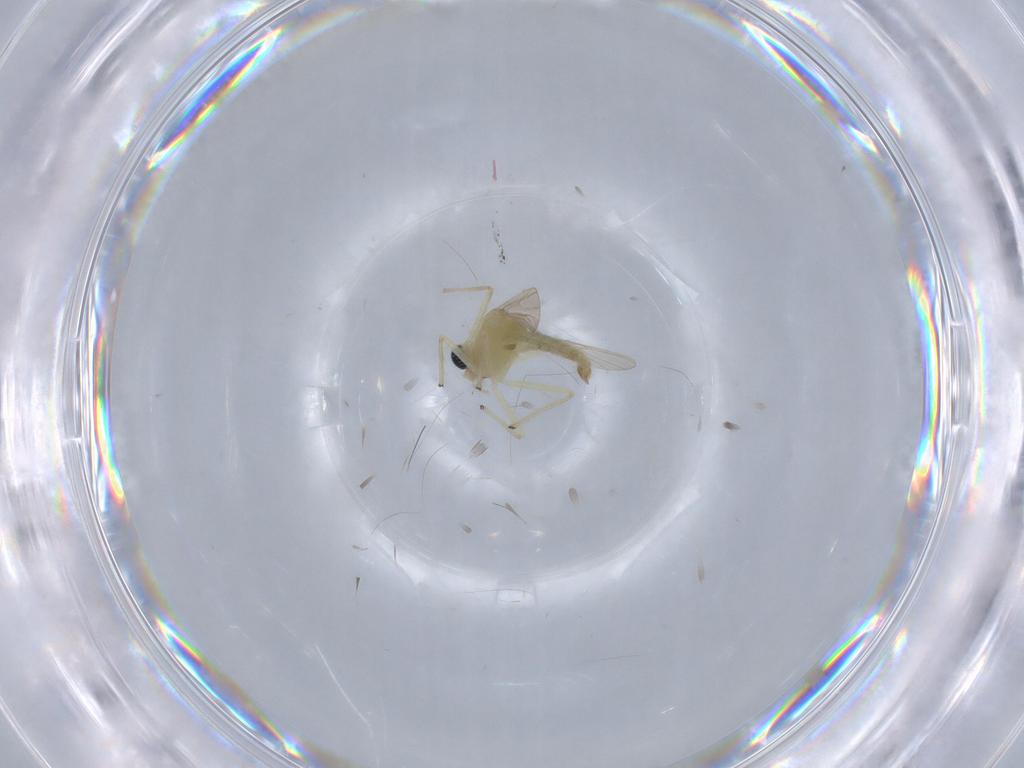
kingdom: Animalia
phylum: Arthropoda
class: Insecta
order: Diptera
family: Chironomidae
